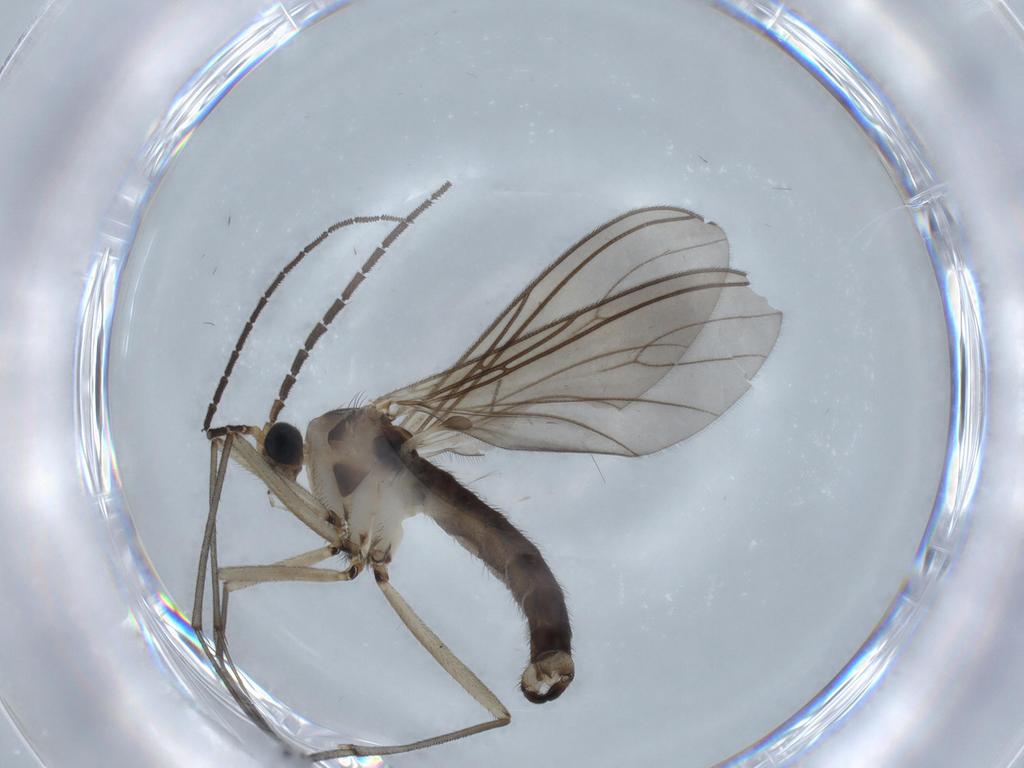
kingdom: Animalia
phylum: Arthropoda
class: Insecta
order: Diptera
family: Sciaridae
